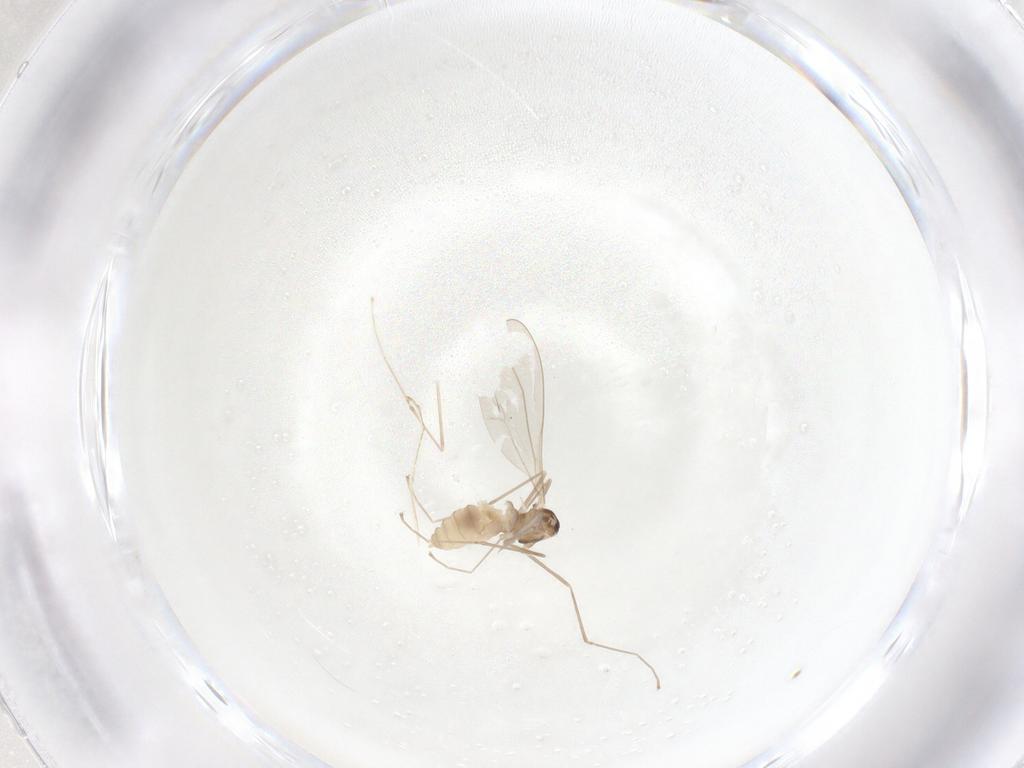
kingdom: Animalia
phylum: Arthropoda
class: Insecta
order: Diptera
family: Cecidomyiidae
